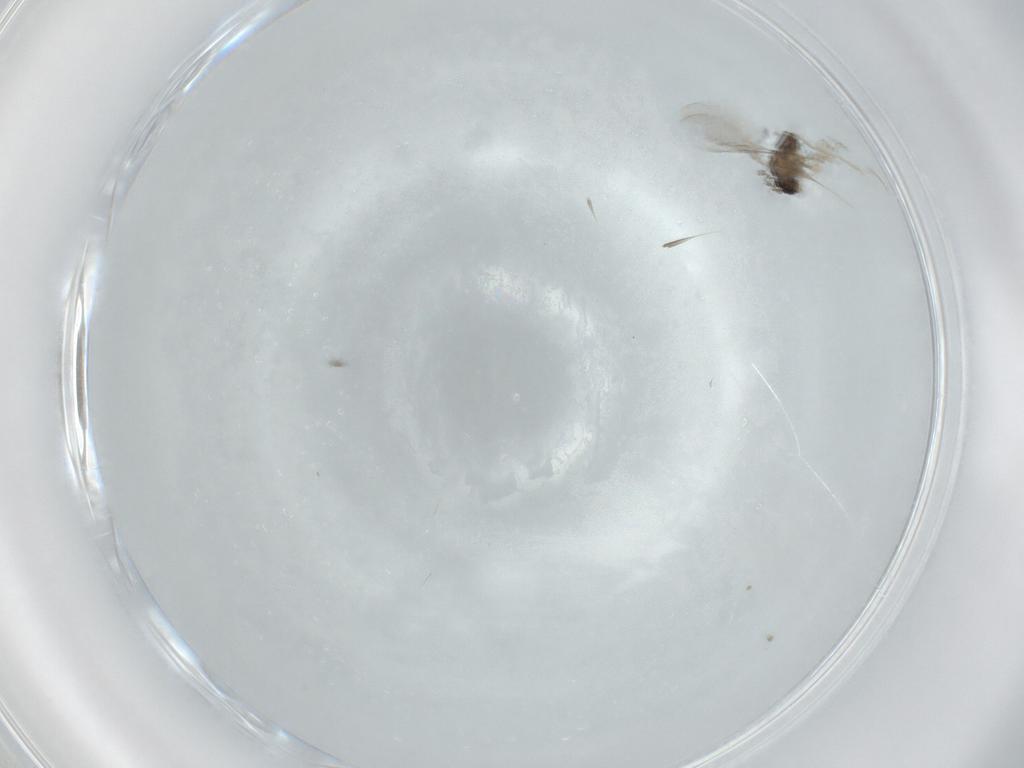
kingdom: Animalia
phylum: Arthropoda
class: Insecta
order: Diptera
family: Cecidomyiidae
